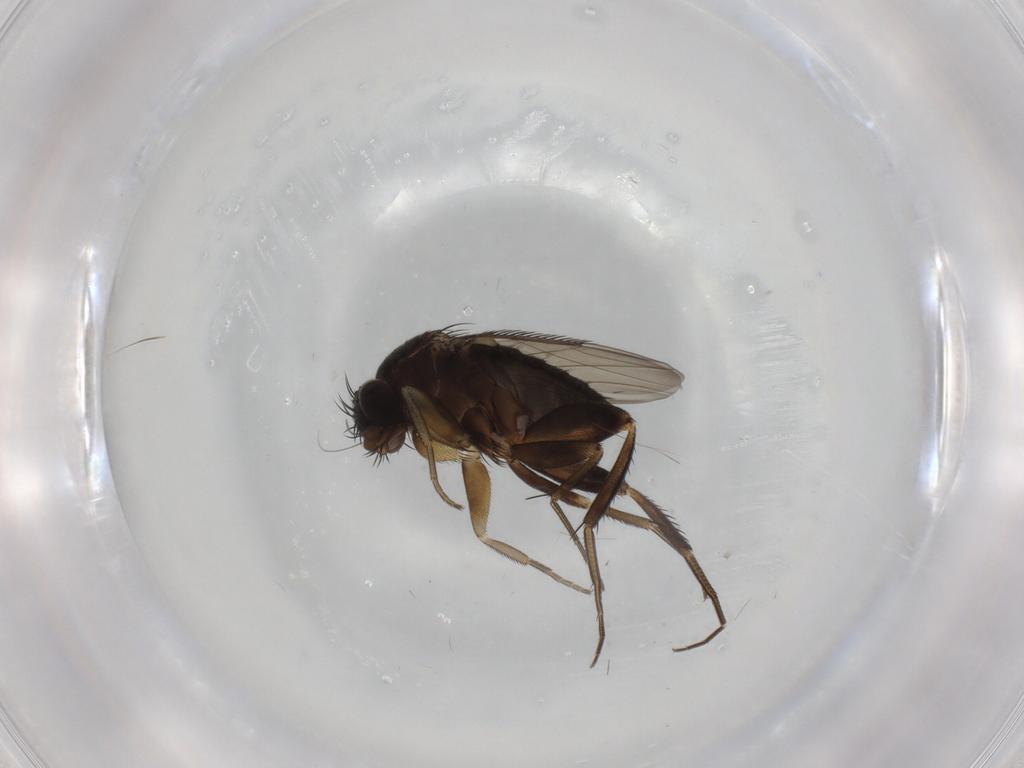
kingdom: Animalia
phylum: Arthropoda
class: Insecta
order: Diptera
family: Phoridae
